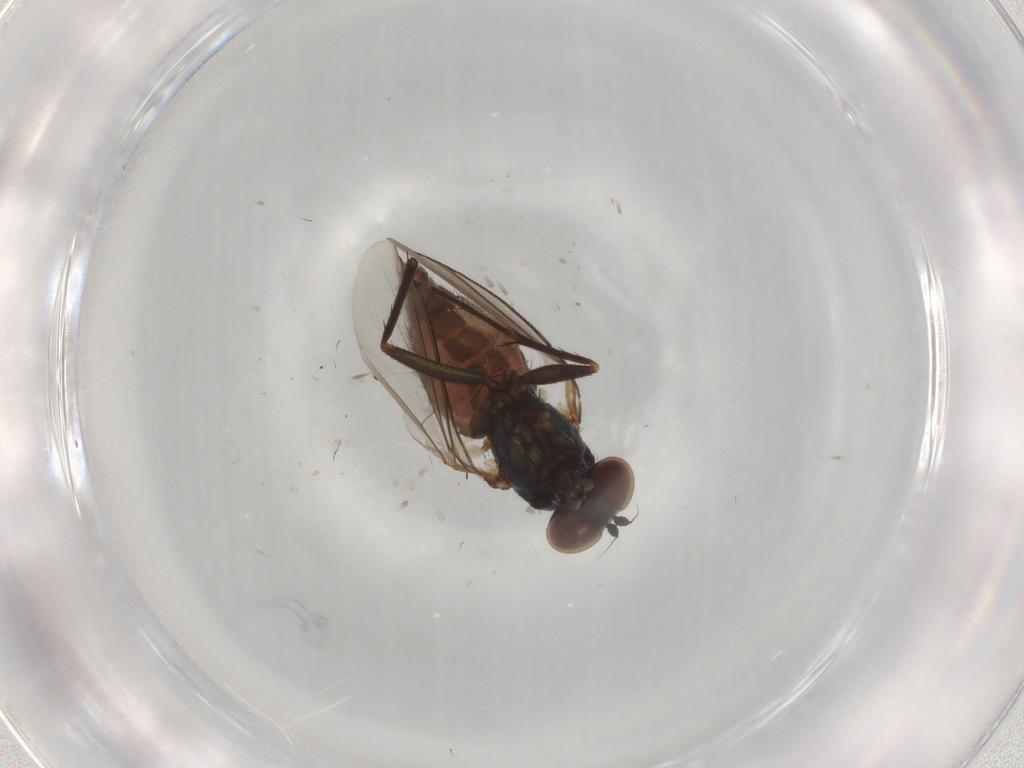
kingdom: Animalia
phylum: Arthropoda
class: Insecta
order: Diptera
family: Dolichopodidae
